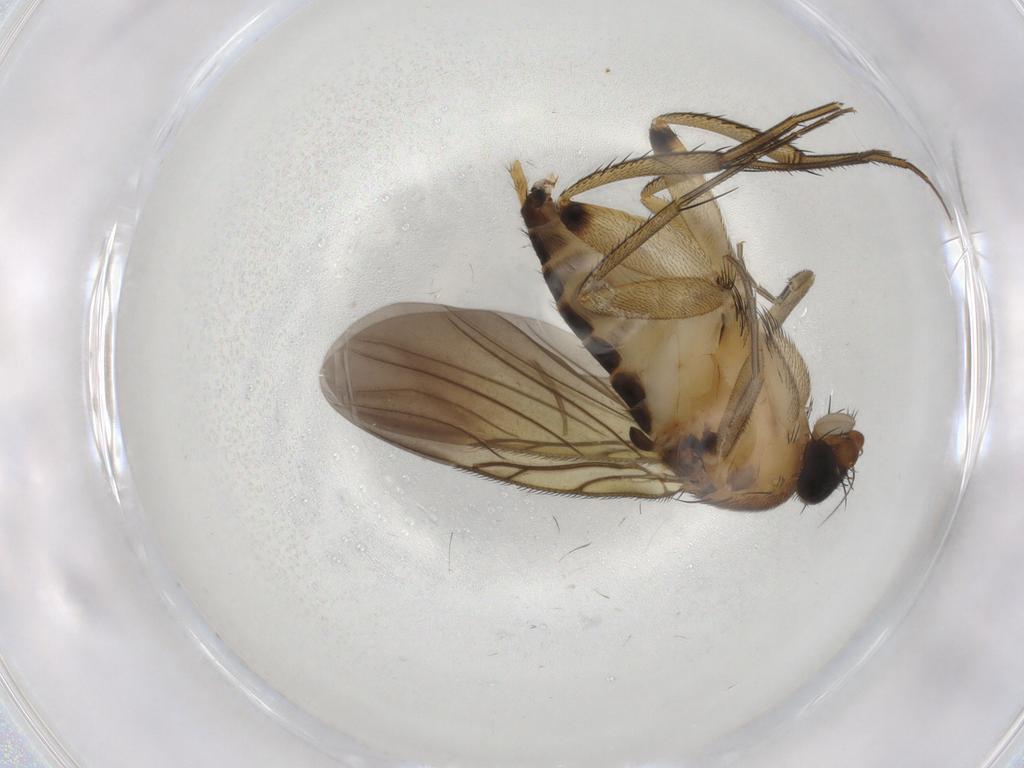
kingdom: Animalia
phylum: Arthropoda
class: Insecta
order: Diptera
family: Phoridae
